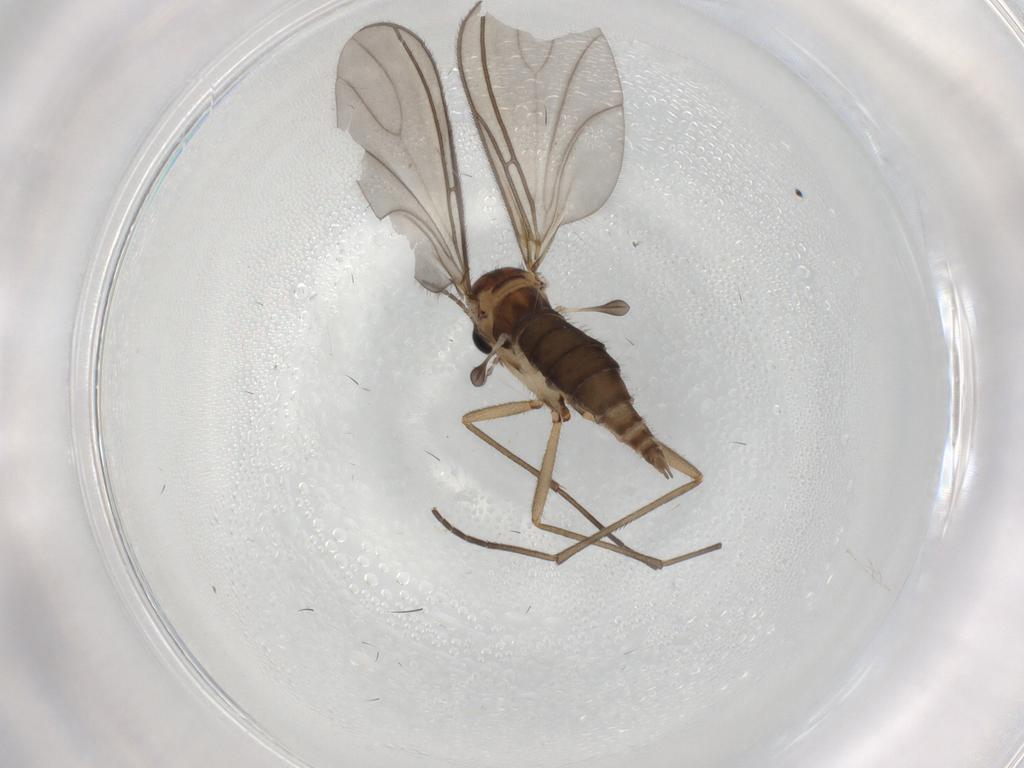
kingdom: Animalia
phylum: Arthropoda
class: Insecta
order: Diptera
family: Sciaridae
